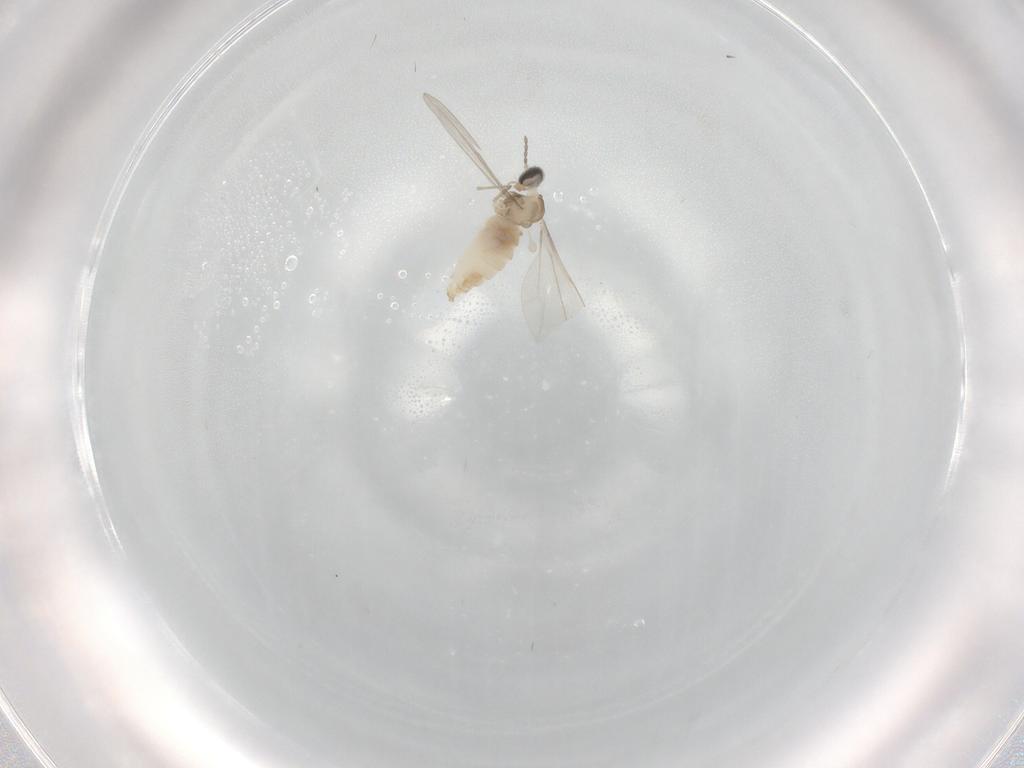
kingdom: Animalia
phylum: Arthropoda
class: Insecta
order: Diptera
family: Cecidomyiidae
